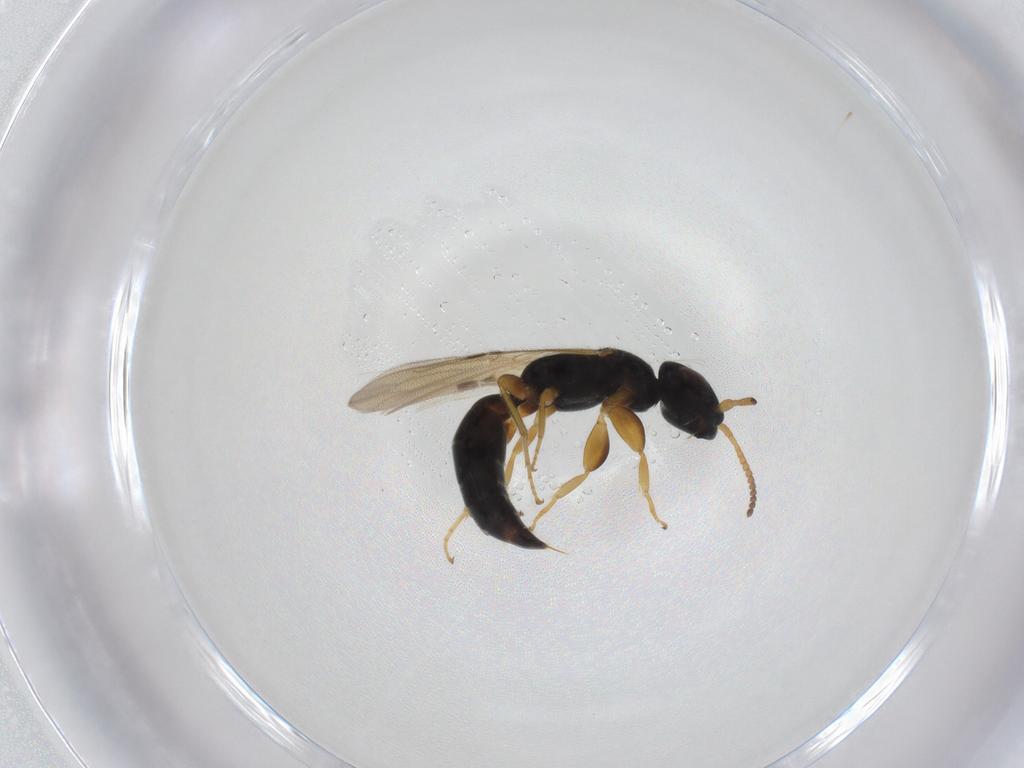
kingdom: Animalia
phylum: Arthropoda
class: Insecta
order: Hymenoptera
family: Bethylidae
